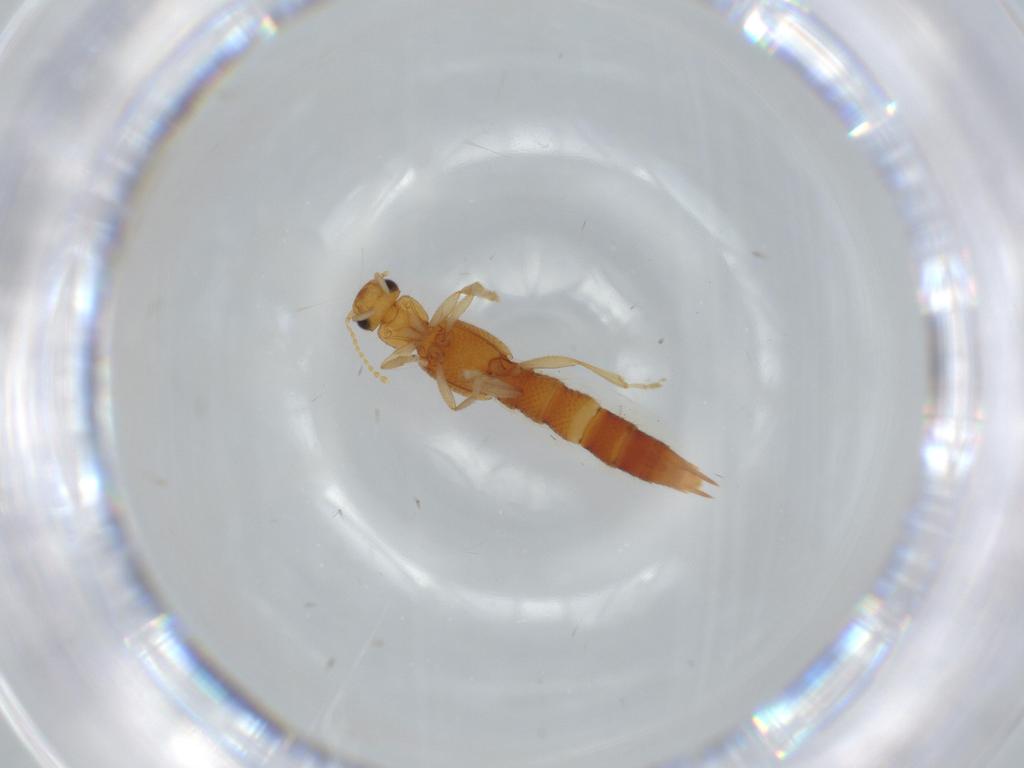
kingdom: Animalia
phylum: Arthropoda
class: Insecta
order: Coleoptera
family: Staphylinidae
